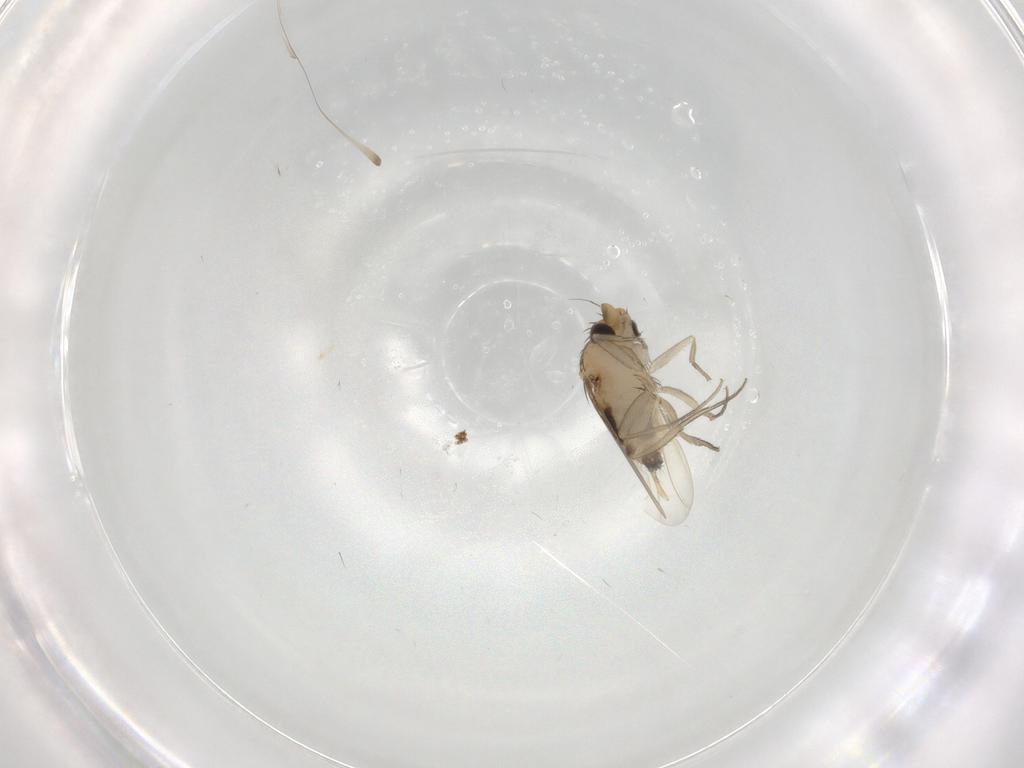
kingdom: Animalia
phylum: Arthropoda
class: Insecta
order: Diptera
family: Phoridae
